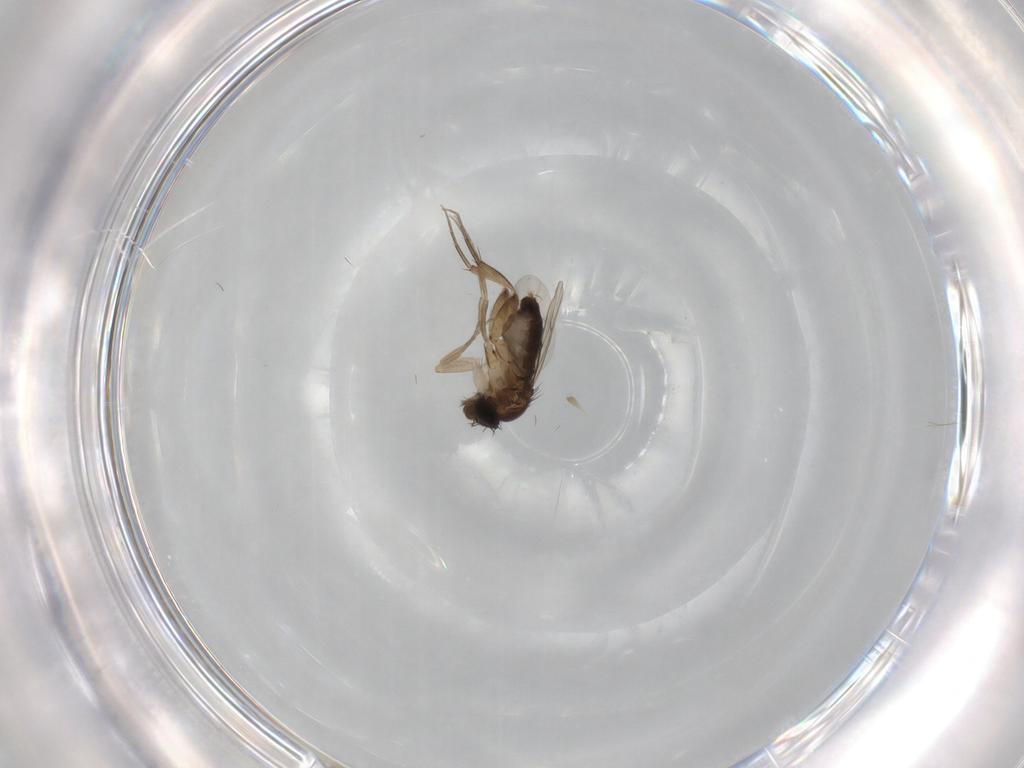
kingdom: Animalia
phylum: Arthropoda
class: Insecta
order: Diptera
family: Phoridae
